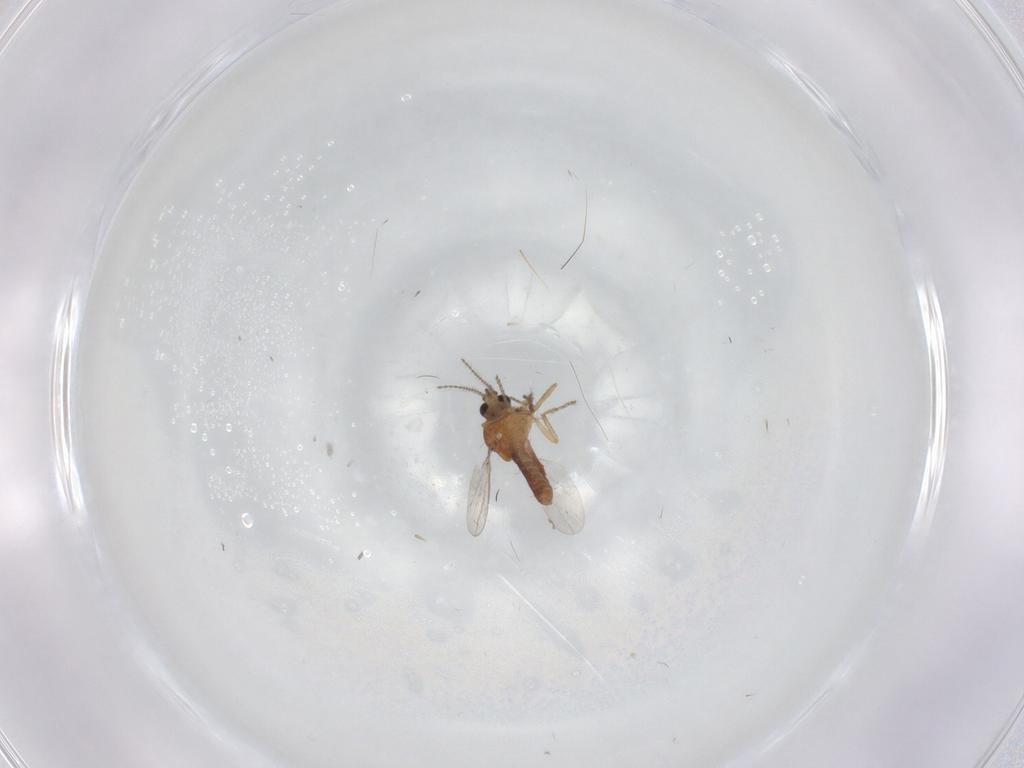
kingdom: Animalia
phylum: Arthropoda
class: Insecta
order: Diptera
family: Ceratopogonidae
